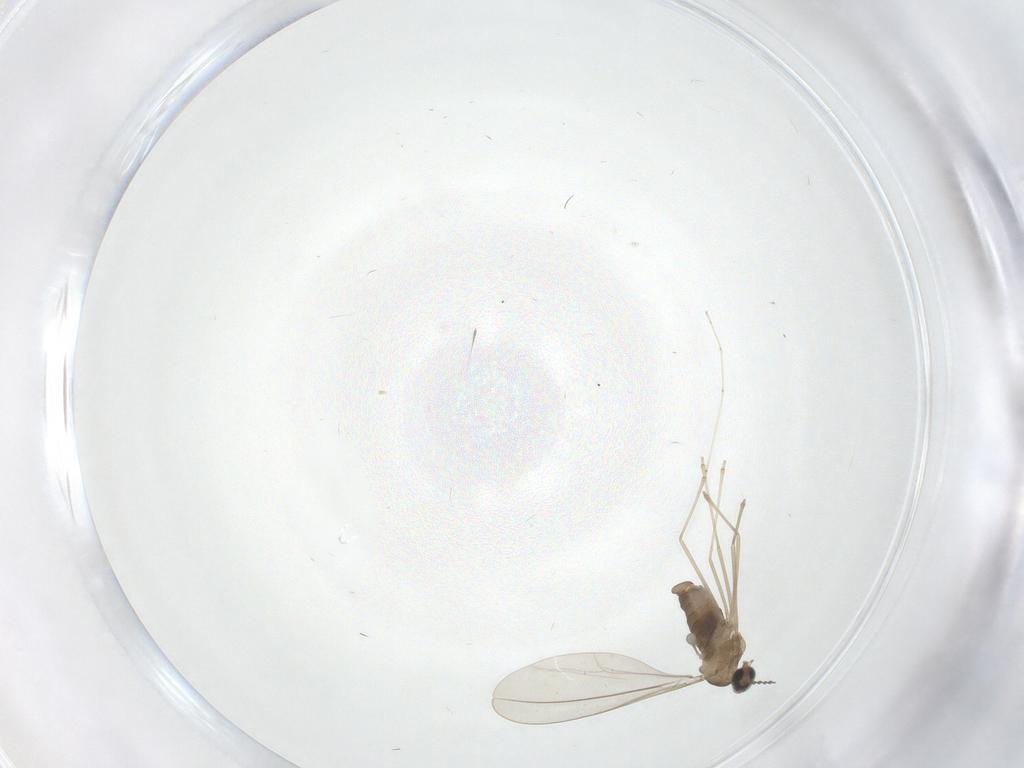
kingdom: Animalia
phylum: Arthropoda
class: Insecta
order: Diptera
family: Cecidomyiidae
